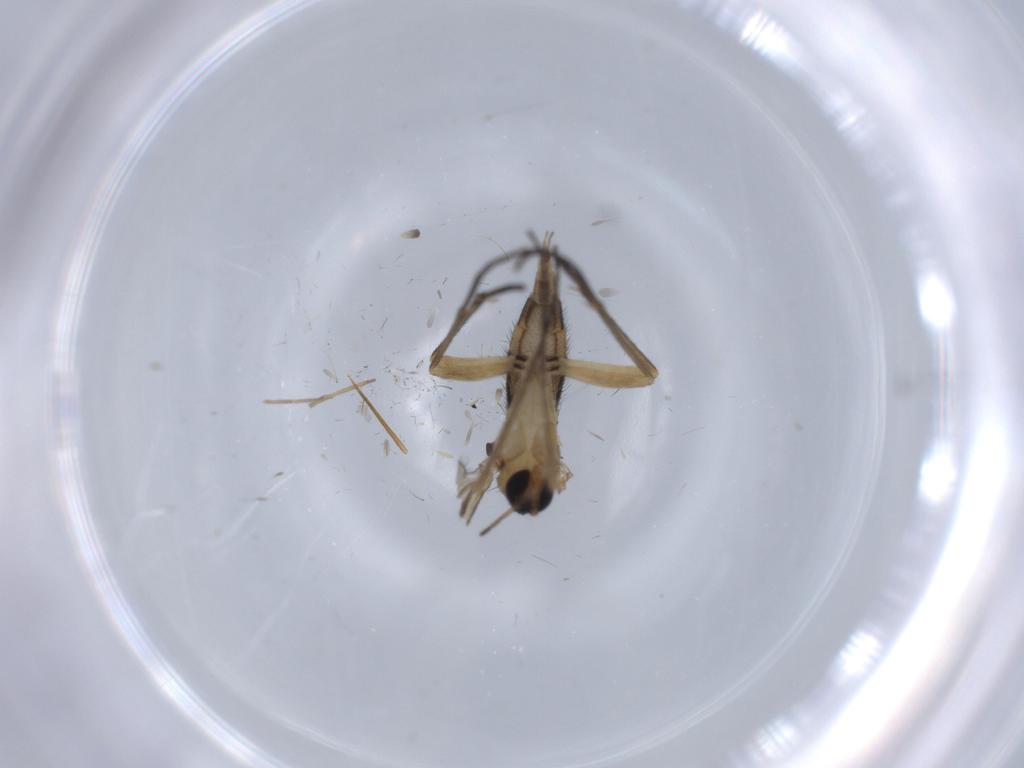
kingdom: Animalia
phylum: Arthropoda
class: Insecta
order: Diptera
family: Chironomidae
